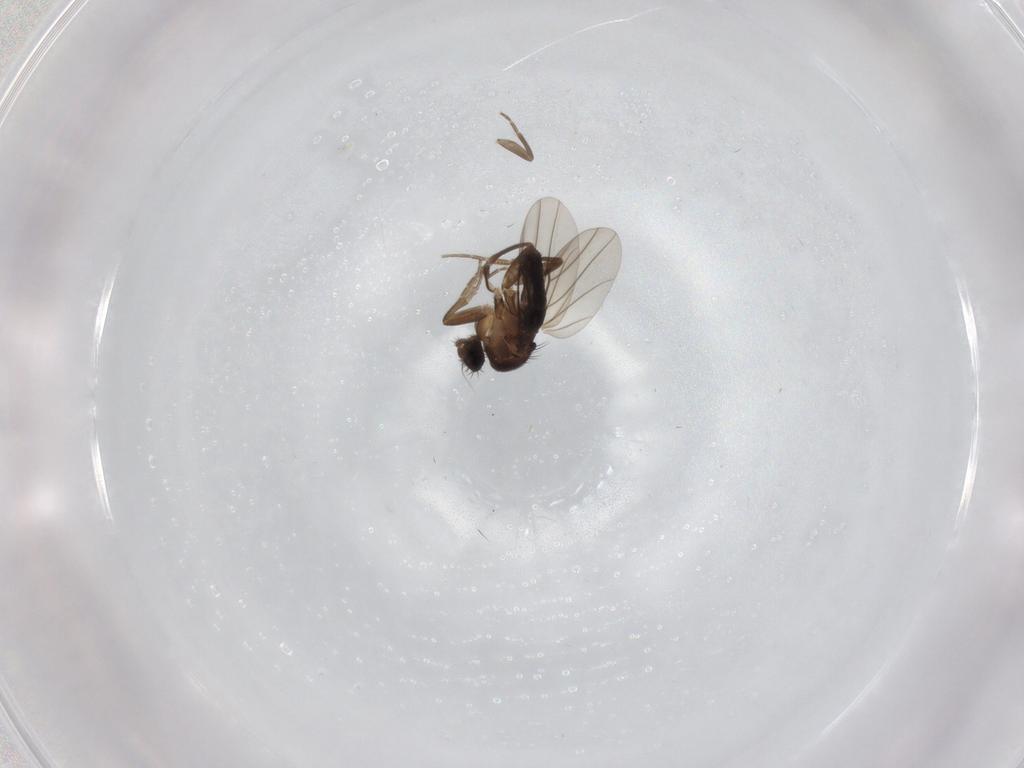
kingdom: Animalia
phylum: Arthropoda
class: Insecta
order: Diptera
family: Phoridae
